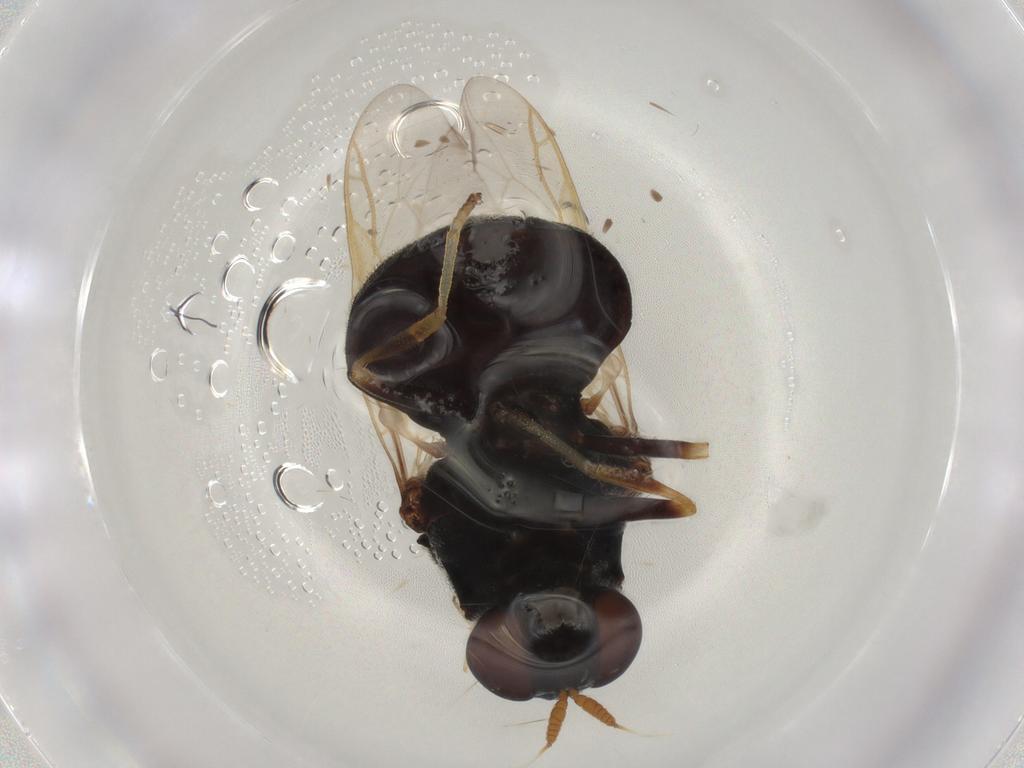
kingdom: Animalia
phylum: Arthropoda
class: Insecta
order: Diptera
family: Stratiomyidae
